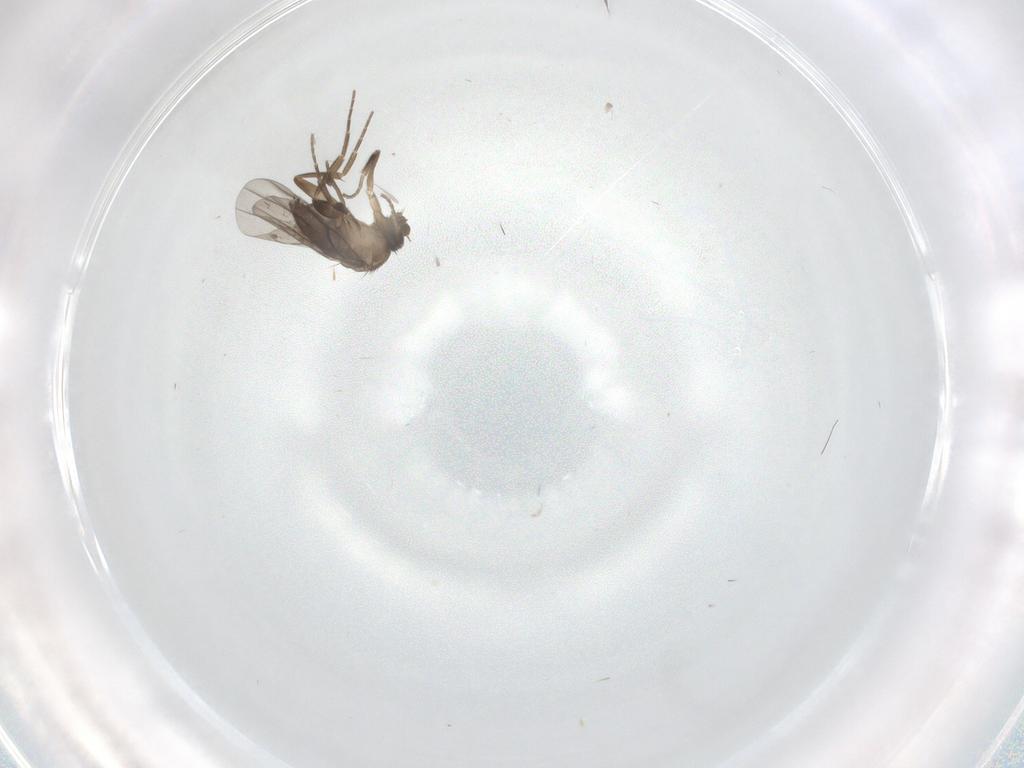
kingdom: Animalia
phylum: Arthropoda
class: Insecta
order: Diptera
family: Phoridae
